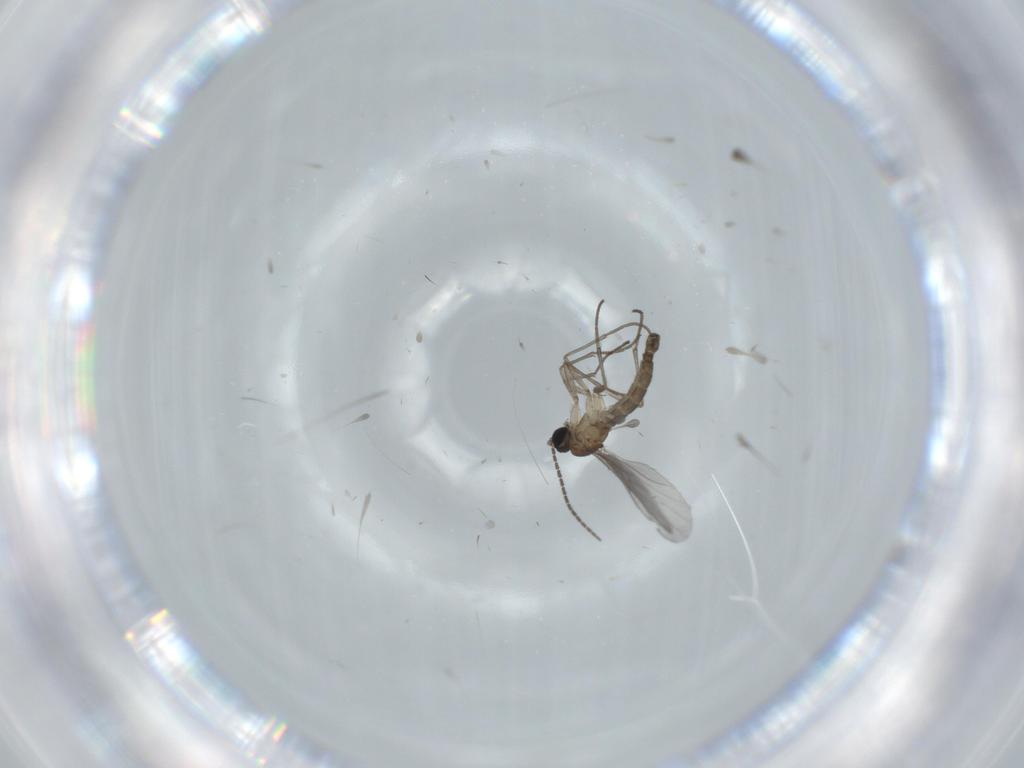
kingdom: Animalia
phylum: Arthropoda
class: Insecta
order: Diptera
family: Sciaridae
